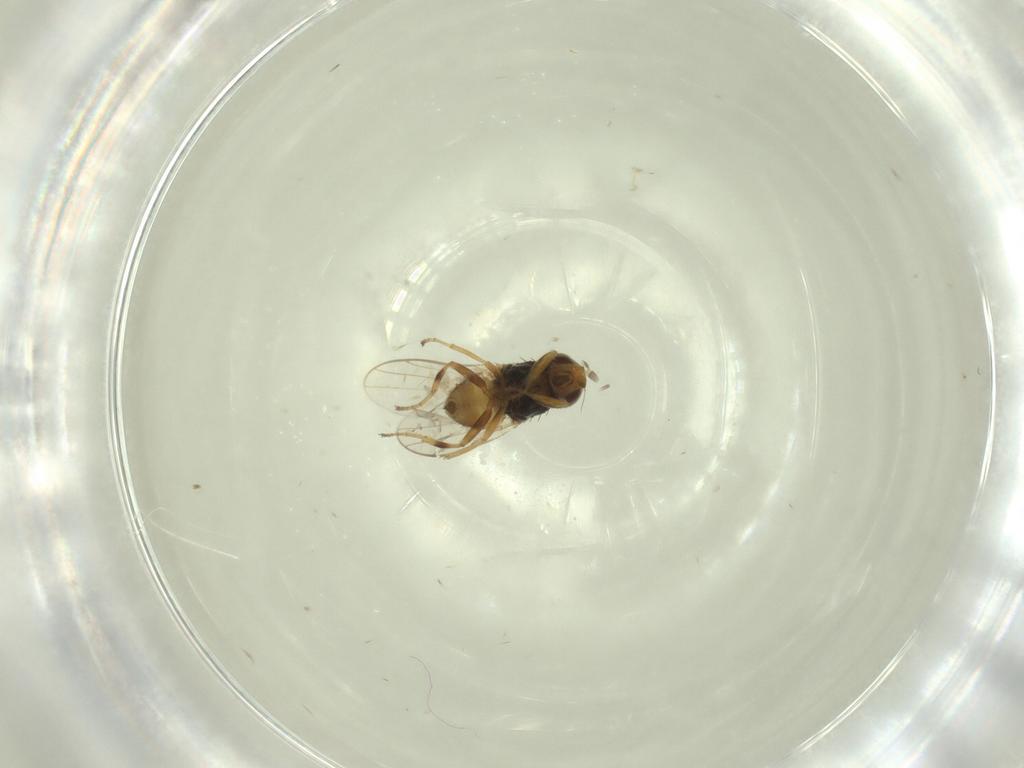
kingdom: Animalia
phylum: Arthropoda
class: Insecta
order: Diptera
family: Chloropidae
